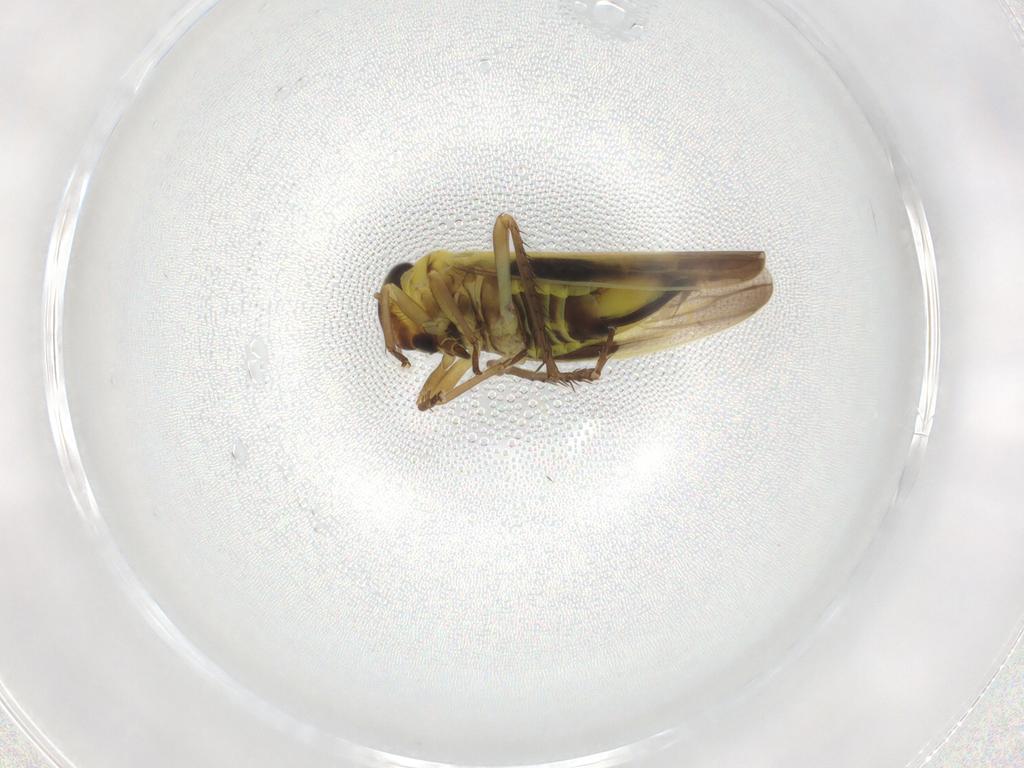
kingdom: Animalia
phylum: Arthropoda
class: Insecta
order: Hemiptera
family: Cicadellidae
